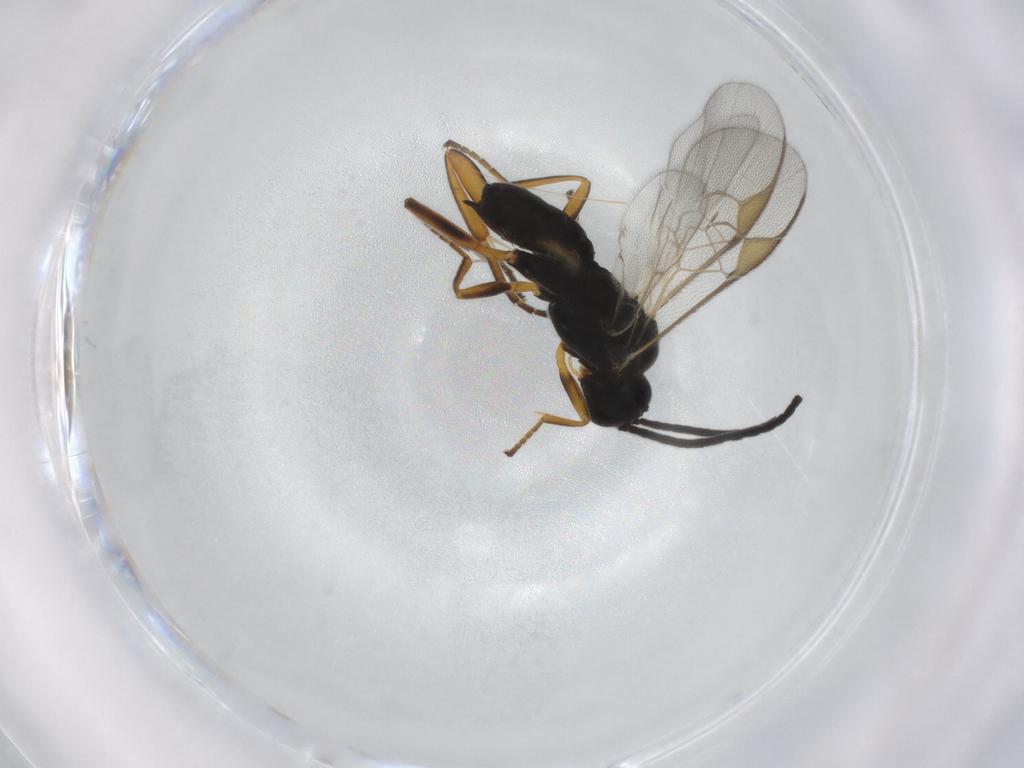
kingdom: Animalia
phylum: Arthropoda
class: Insecta
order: Hymenoptera
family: Braconidae
